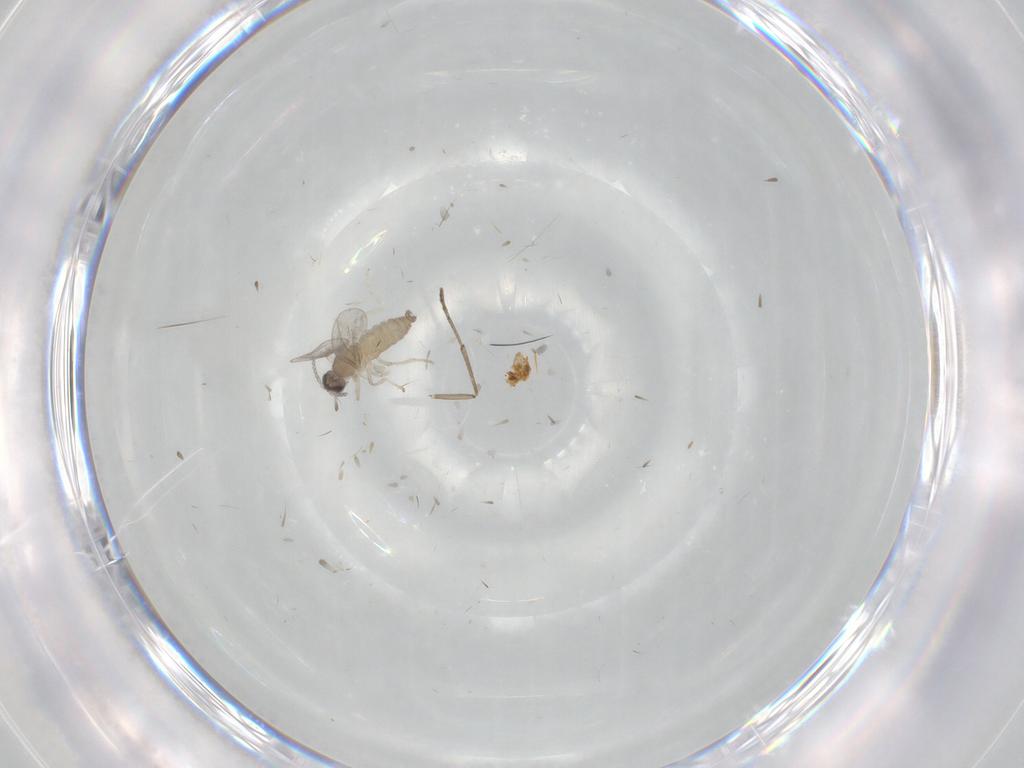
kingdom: Animalia
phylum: Arthropoda
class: Insecta
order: Diptera
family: Cecidomyiidae
